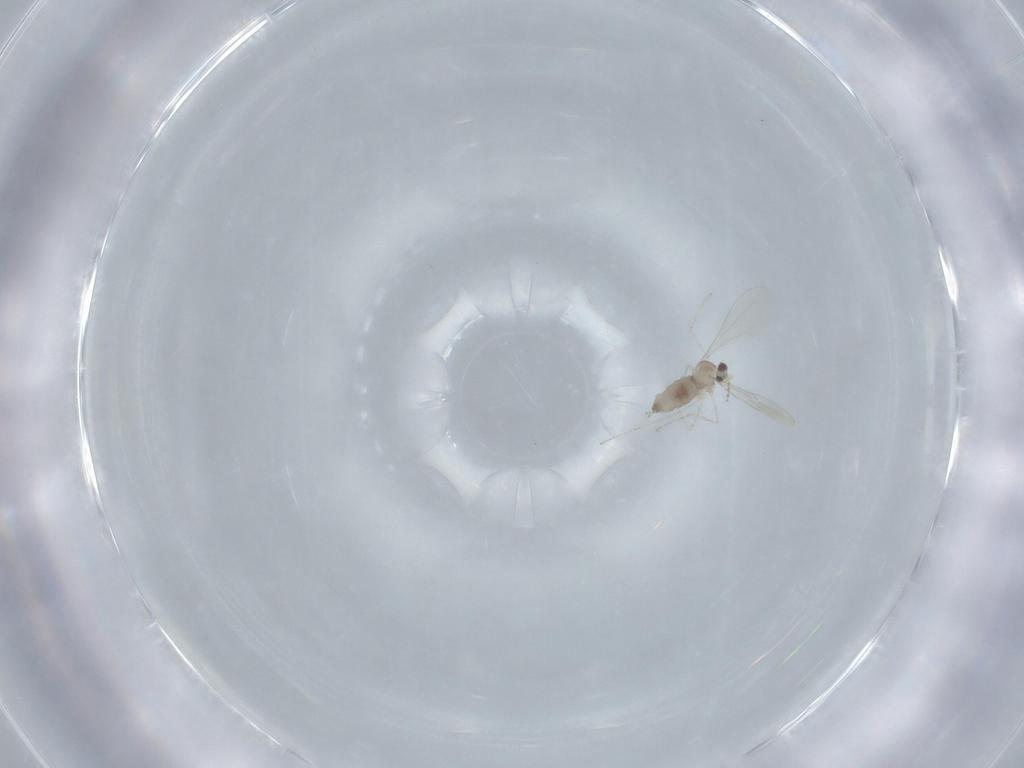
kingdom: Animalia
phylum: Arthropoda
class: Insecta
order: Diptera
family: Cecidomyiidae
